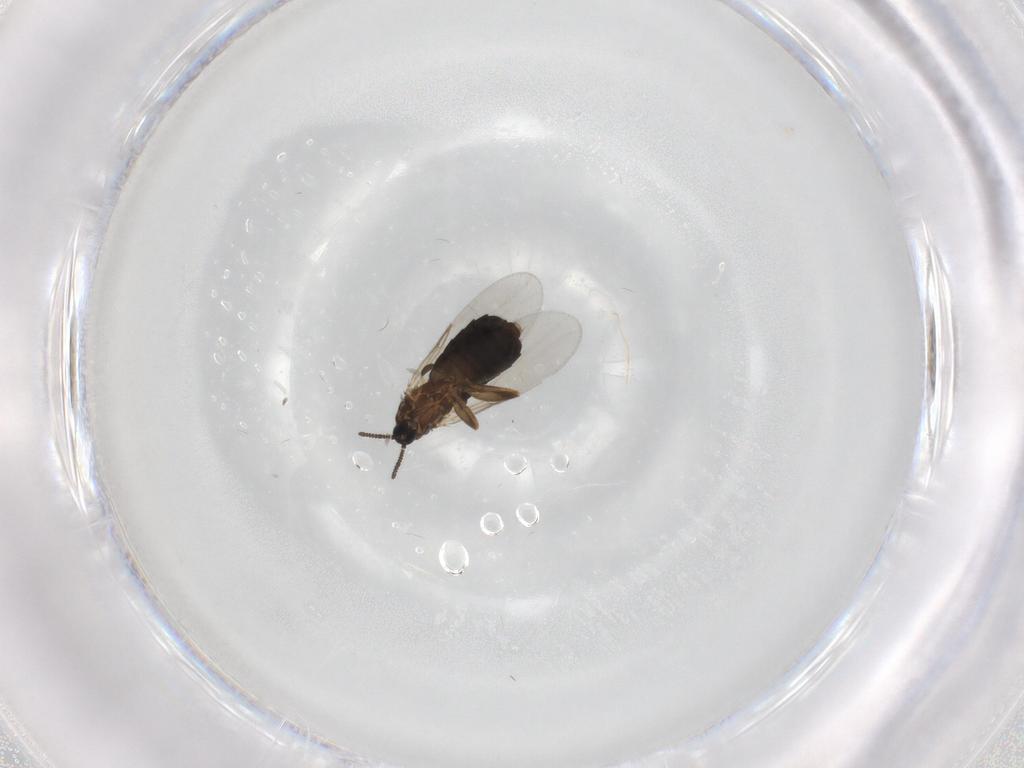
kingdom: Animalia
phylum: Arthropoda
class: Insecta
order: Diptera
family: Scatopsidae
